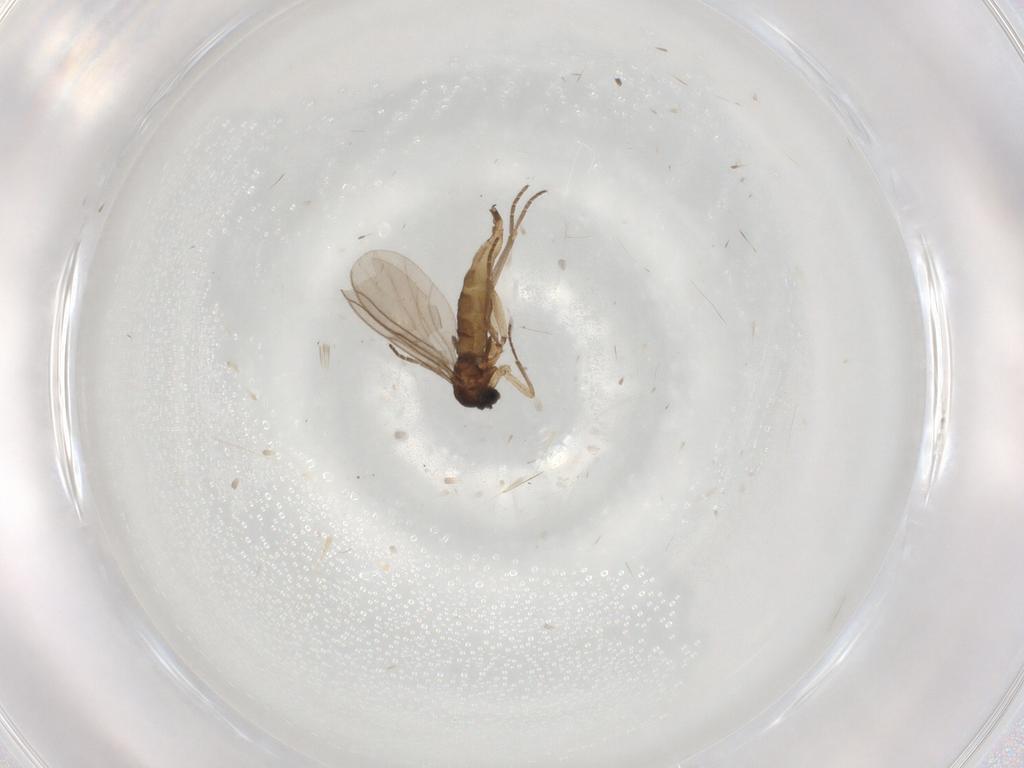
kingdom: Animalia
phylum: Arthropoda
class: Insecta
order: Diptera
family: Sciaridae
